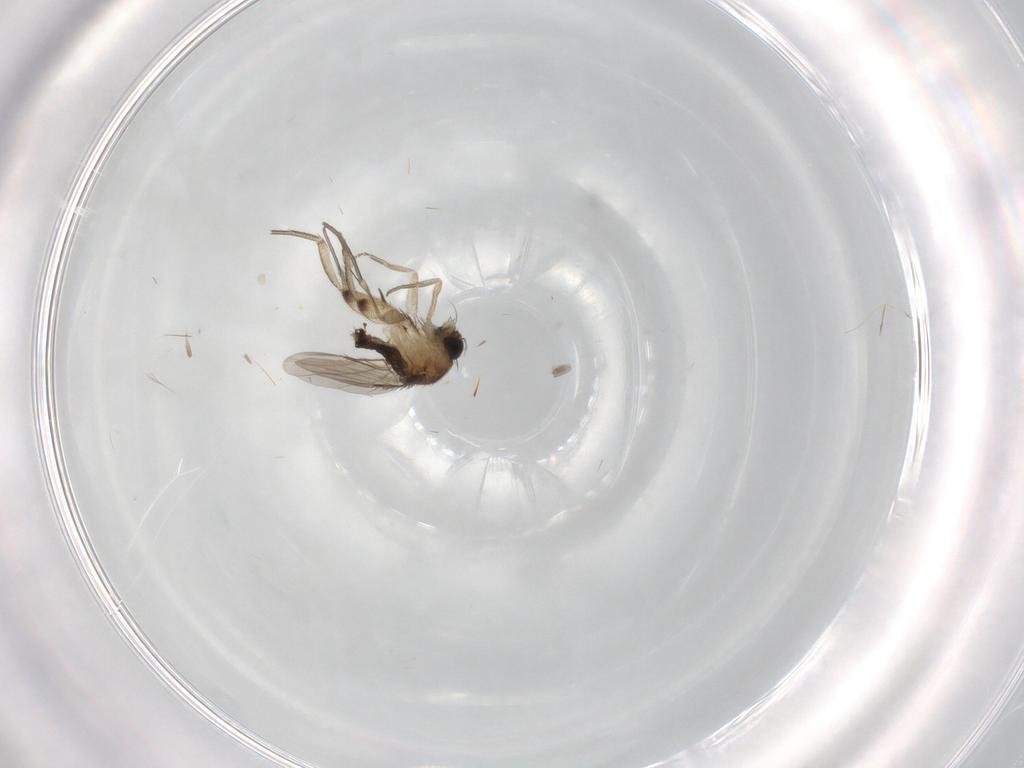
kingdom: Animalia
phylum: Arthropoda
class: Insecta
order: Diptera
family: Phoridae
